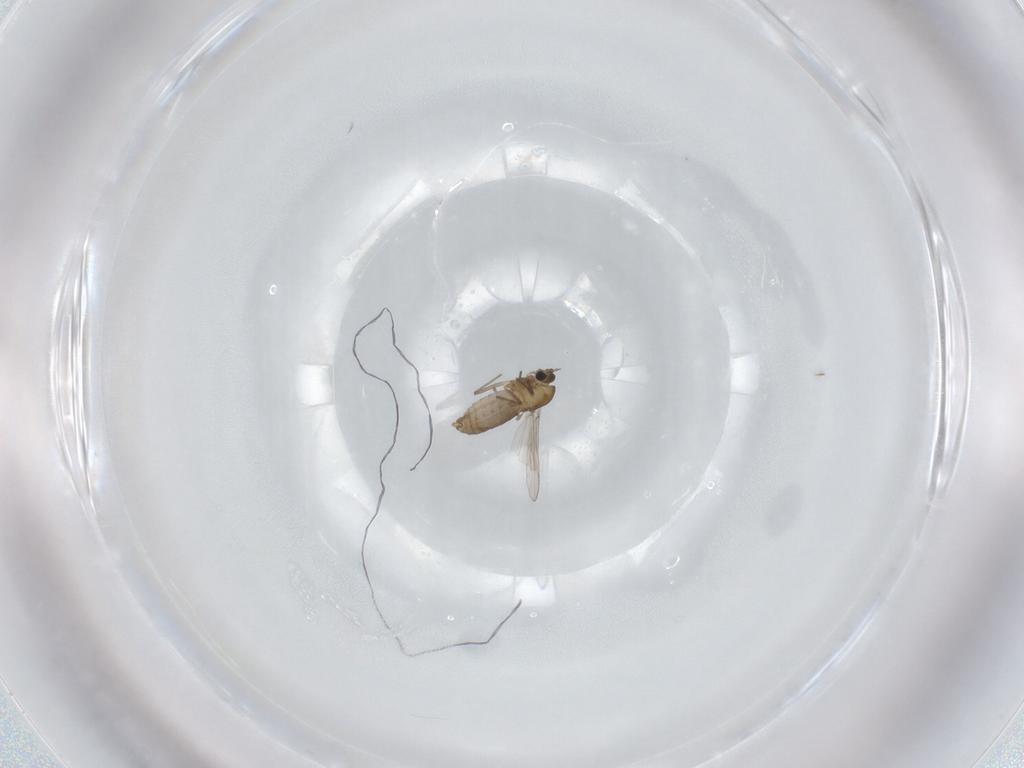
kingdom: Animalia
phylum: Arthropoda
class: Insecta
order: Diptera
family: Chironomidae
